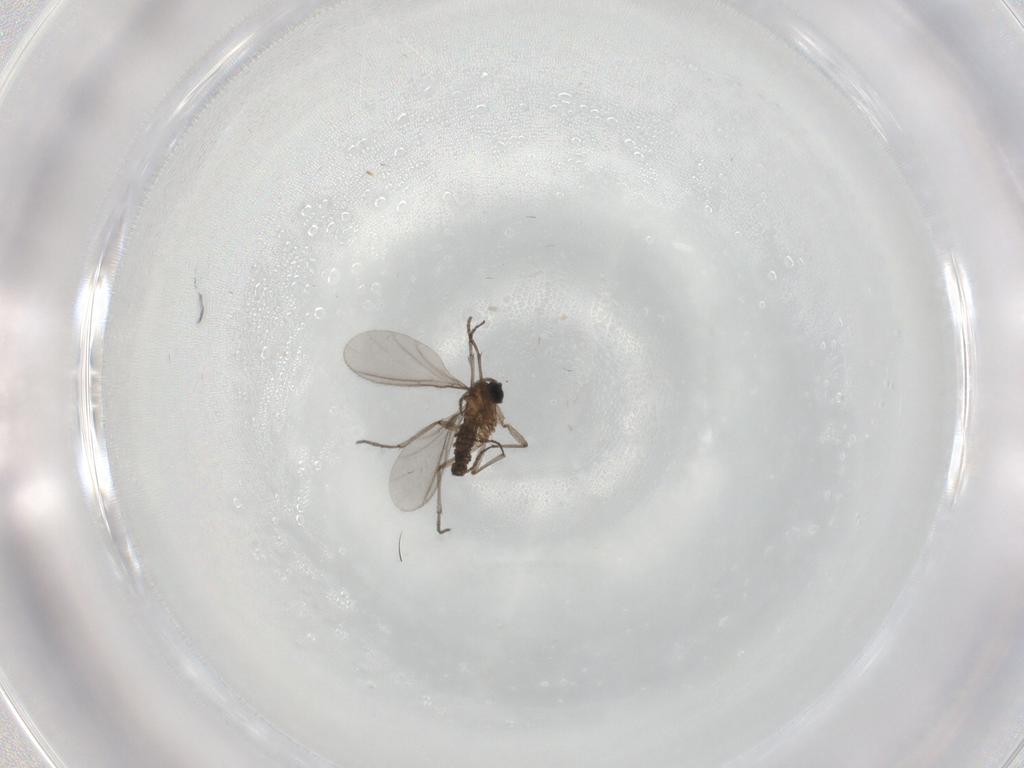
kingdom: Animalia
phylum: Arthropoda
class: Insecta
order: Diptera
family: Sciaridae
